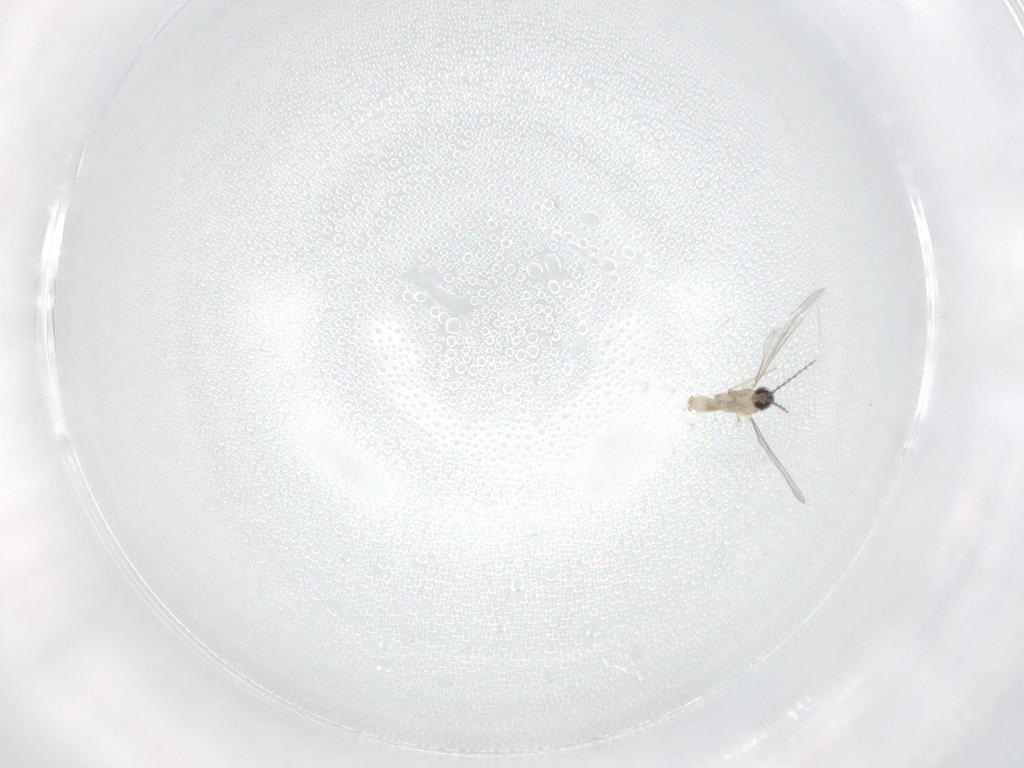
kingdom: Animalia
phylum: Arthropoda
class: Insecta
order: Diptera
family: Cecidomyiidae
